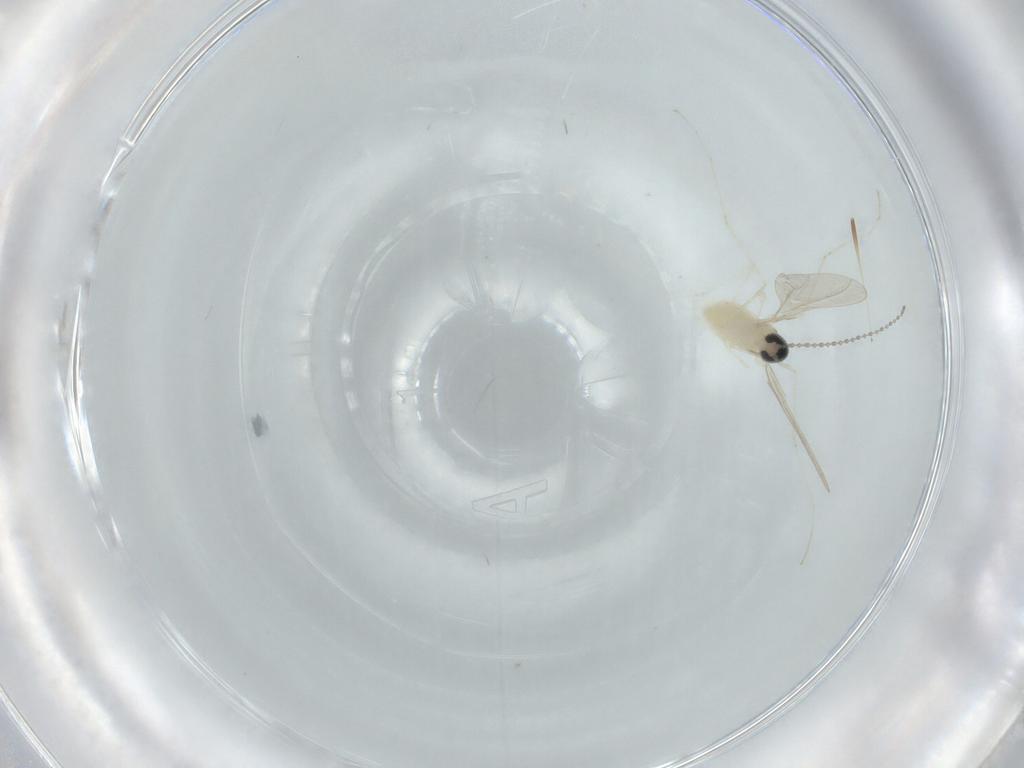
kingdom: Animalia
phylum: Arthropoda
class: Insecta
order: Diptera
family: Cecidomyiidae
